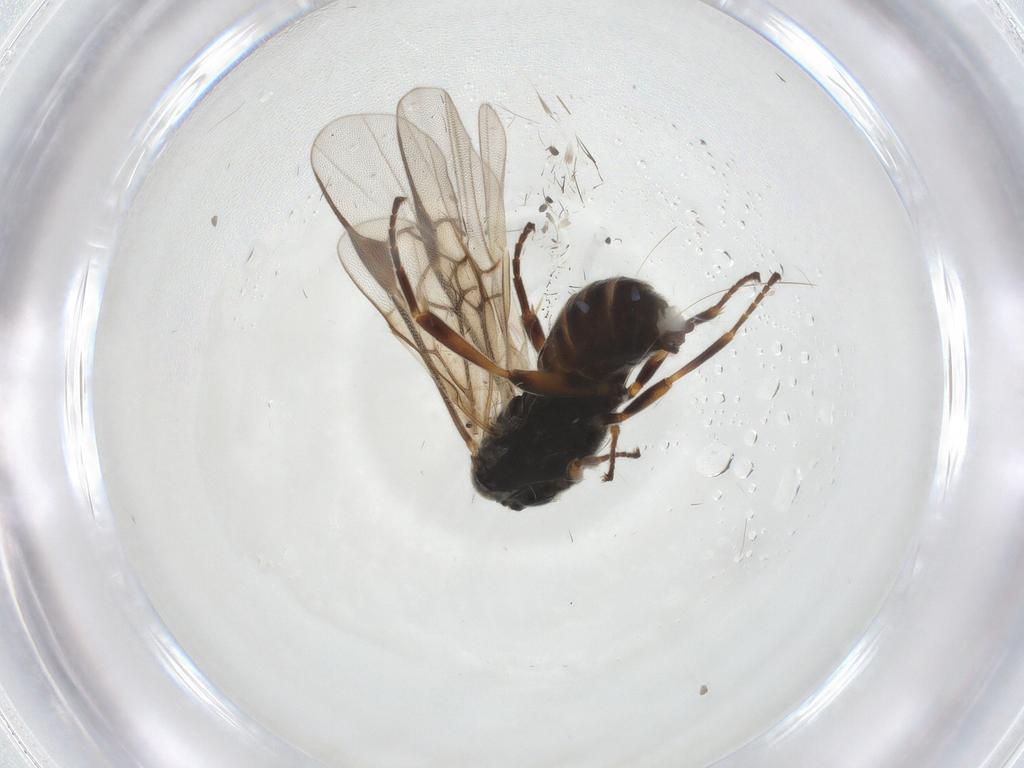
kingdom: Animalia
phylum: Arthropoda
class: Insecta
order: Hymenoptera
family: Braconidae
